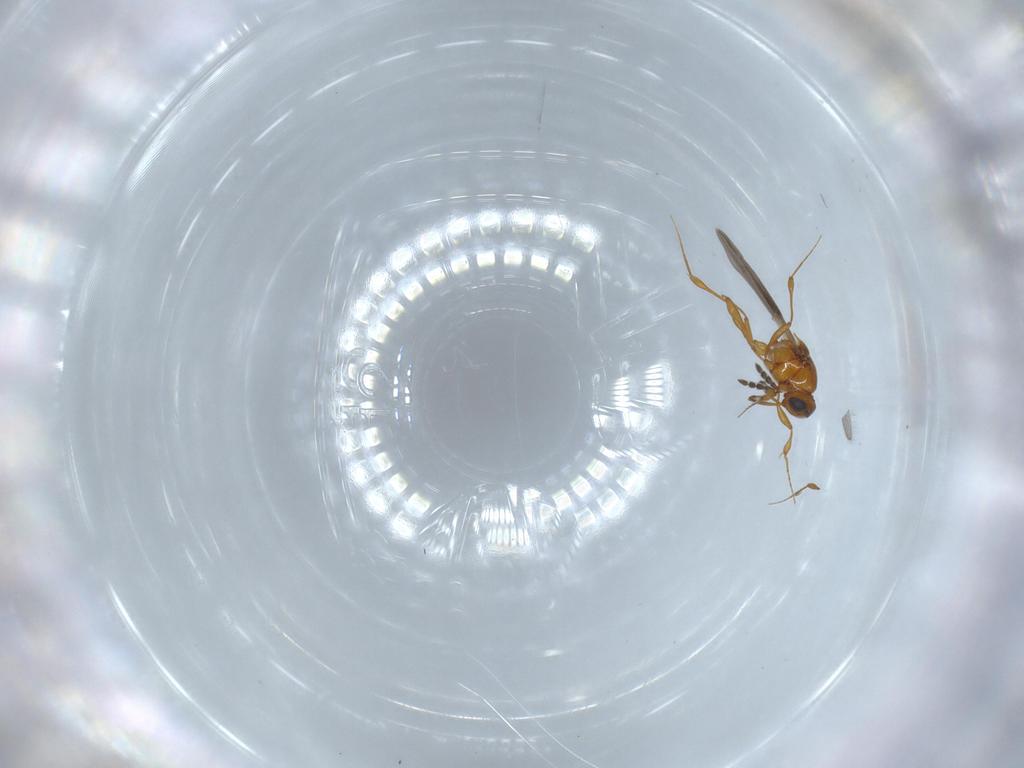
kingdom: Animalia
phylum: Arthropoda
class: Insecta
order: Hymenoptera
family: Platygastridae
